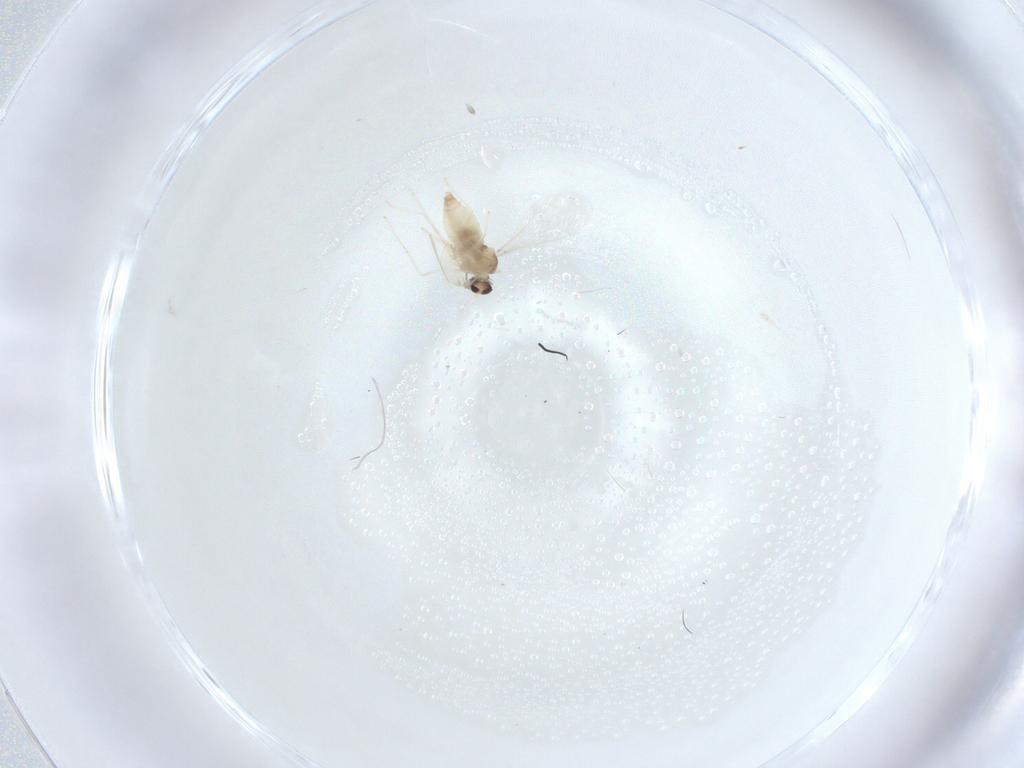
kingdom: Animalia
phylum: Arthropoda
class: Insecta
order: Diptera
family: Cecidomyiidae
